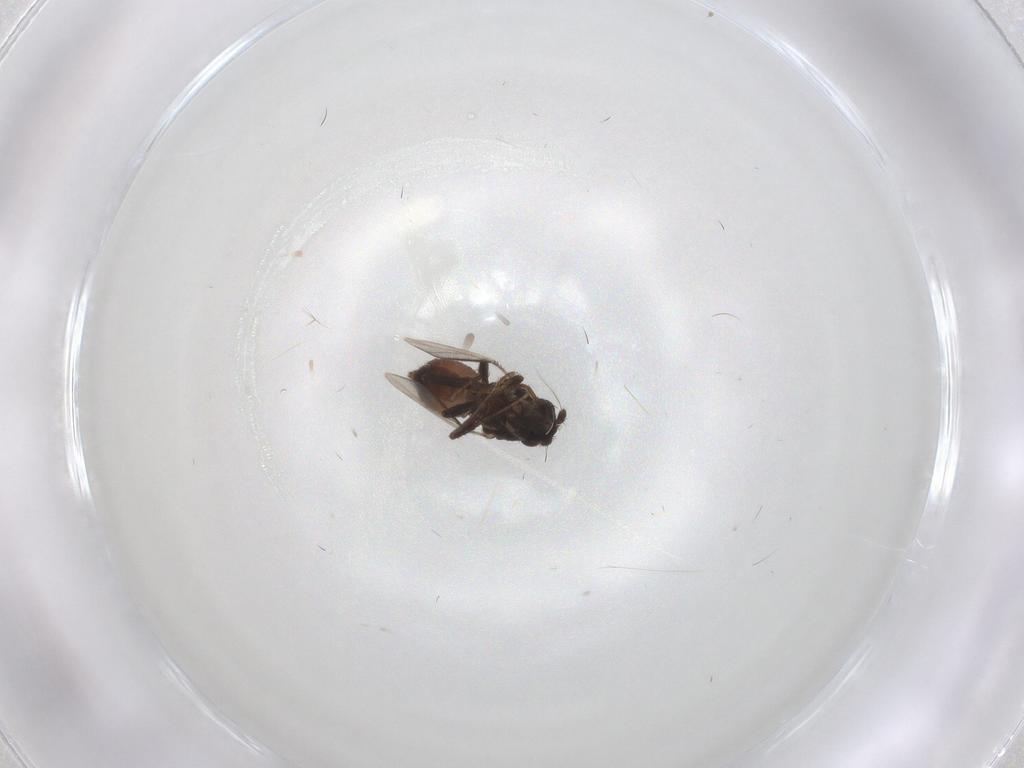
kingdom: Animalia
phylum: Arthropoda
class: Insecta
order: Diptera
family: Sphaeroceridae
